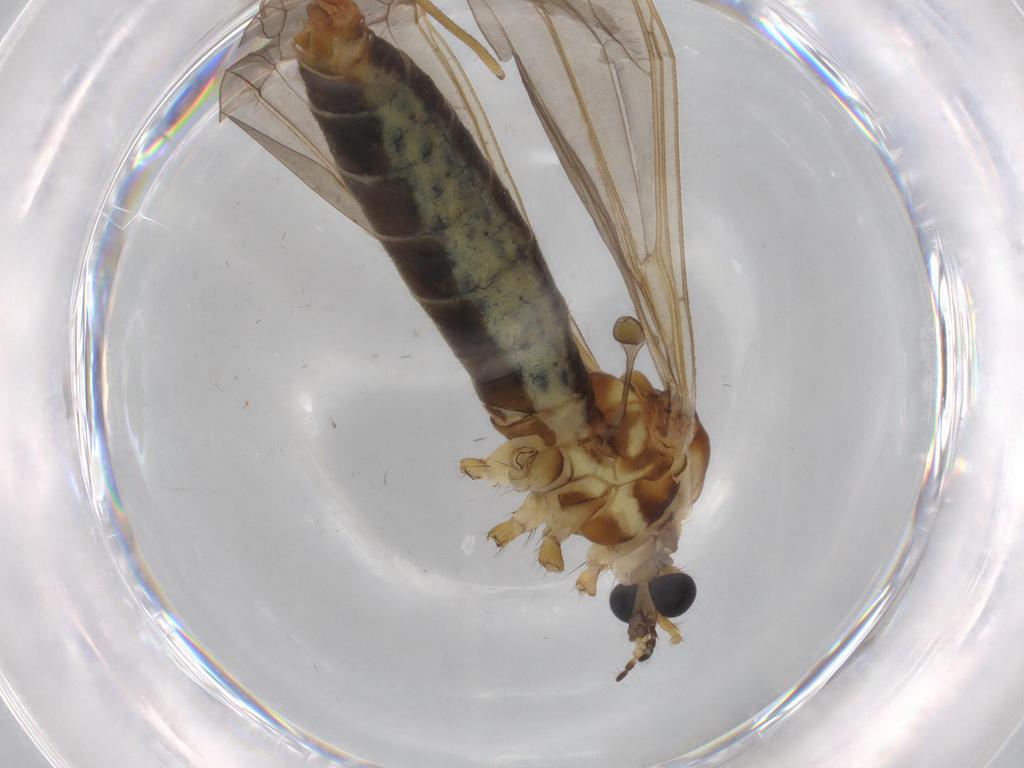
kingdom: Animalia
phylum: Arthropoda
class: Insecta
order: Diptera
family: Limoniidae
